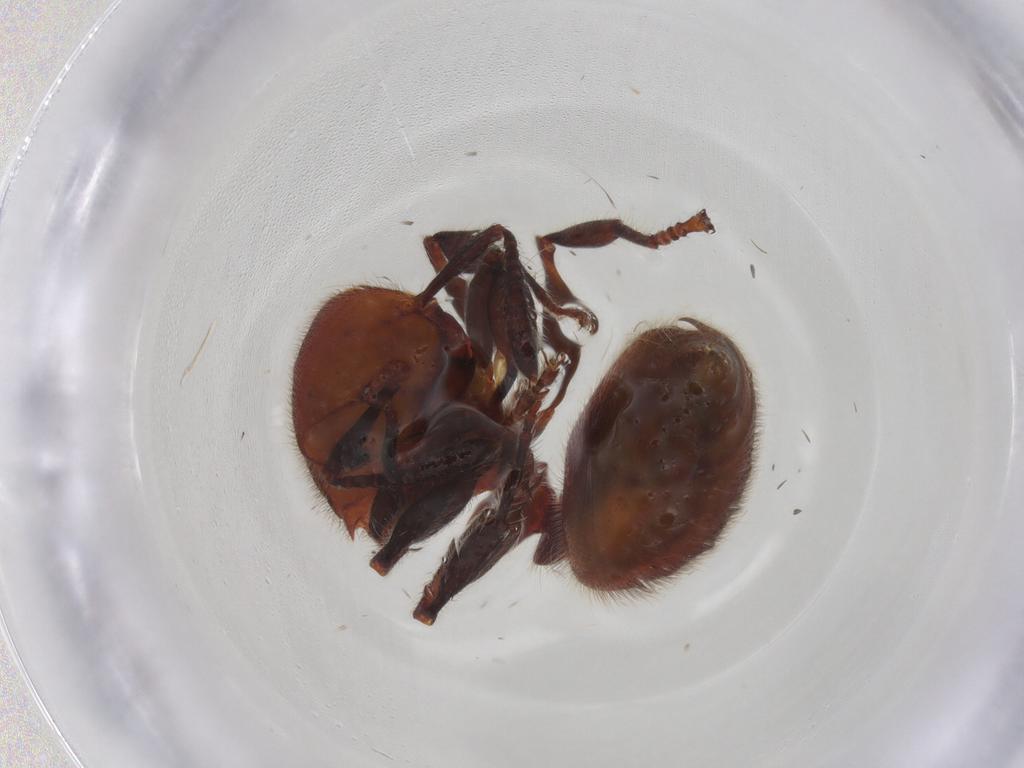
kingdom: Animalia
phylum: Arthropoda
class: Insecta
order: Hymenoptera
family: Formicidae
